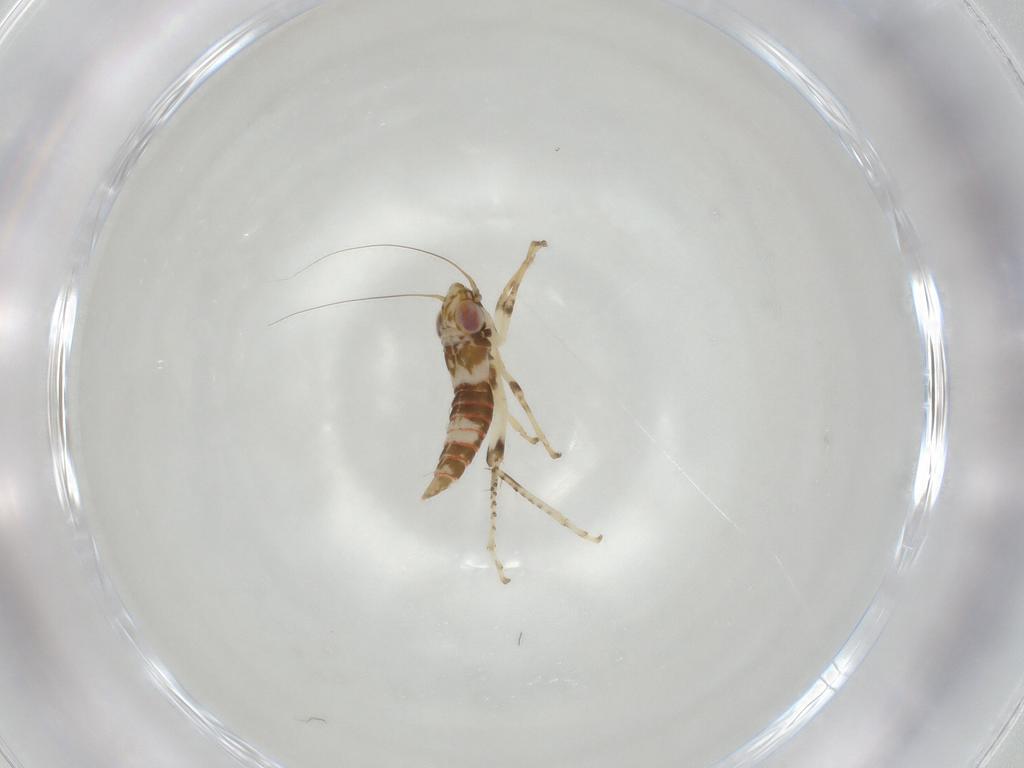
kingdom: Animalia
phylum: Arthropoda
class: Insecta
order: Hemiptera
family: Cicadellidae
